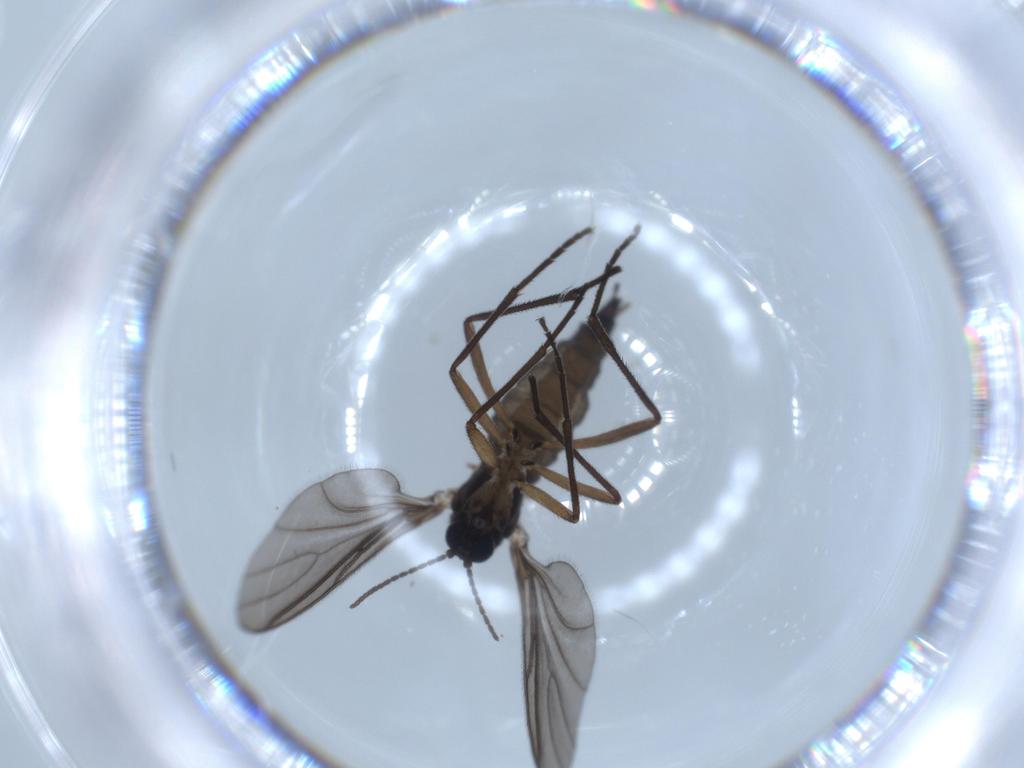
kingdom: Animalia
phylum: Arthropoda
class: Insecta
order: Diptera
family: Sciaridae
